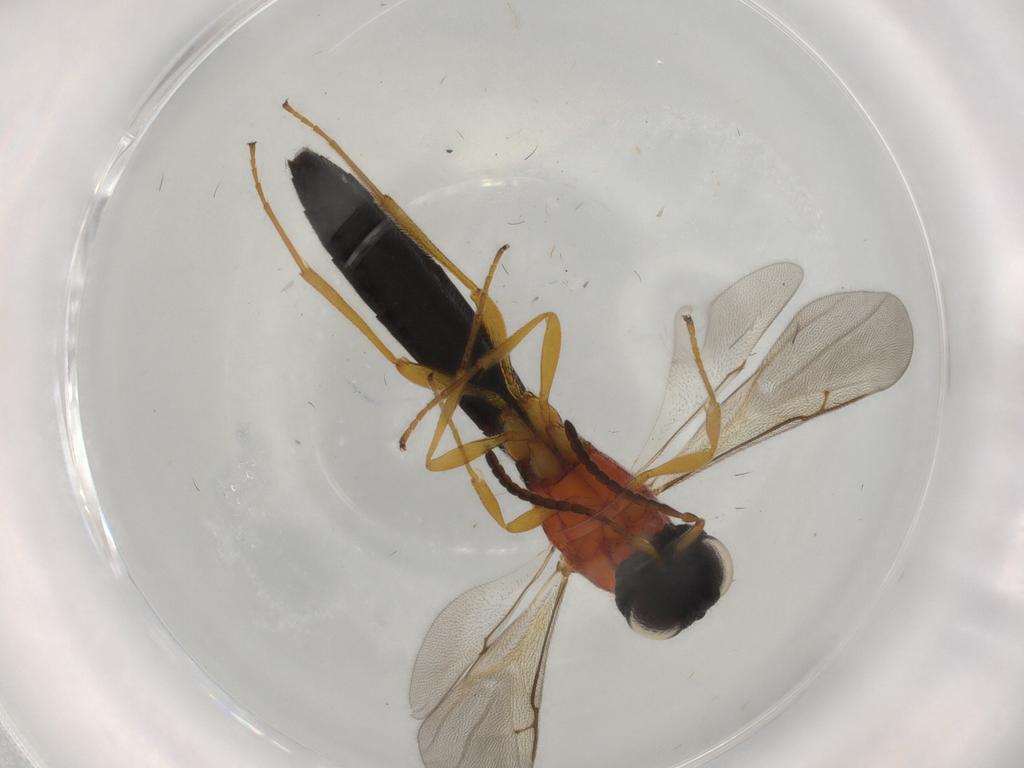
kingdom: Animalia
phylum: Arthropoda
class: Insecta
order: Hymenoptera
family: Scelionidae
